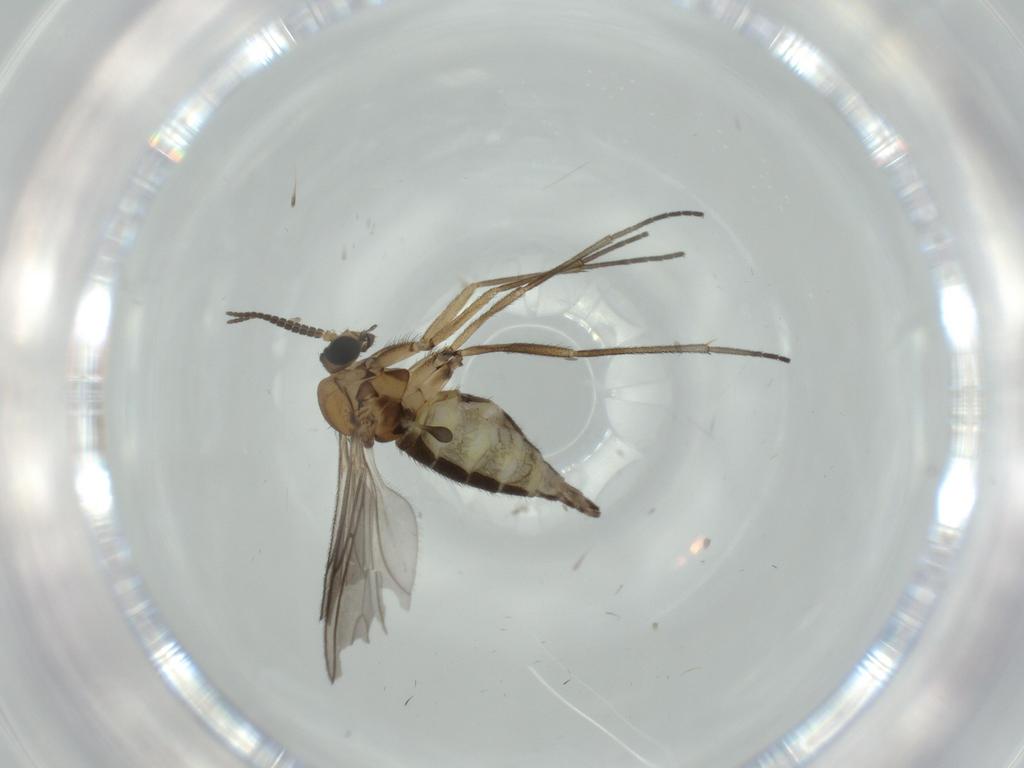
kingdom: Animalia
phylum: Arthropoda
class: Insecta
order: Diptera
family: Sciaridae
